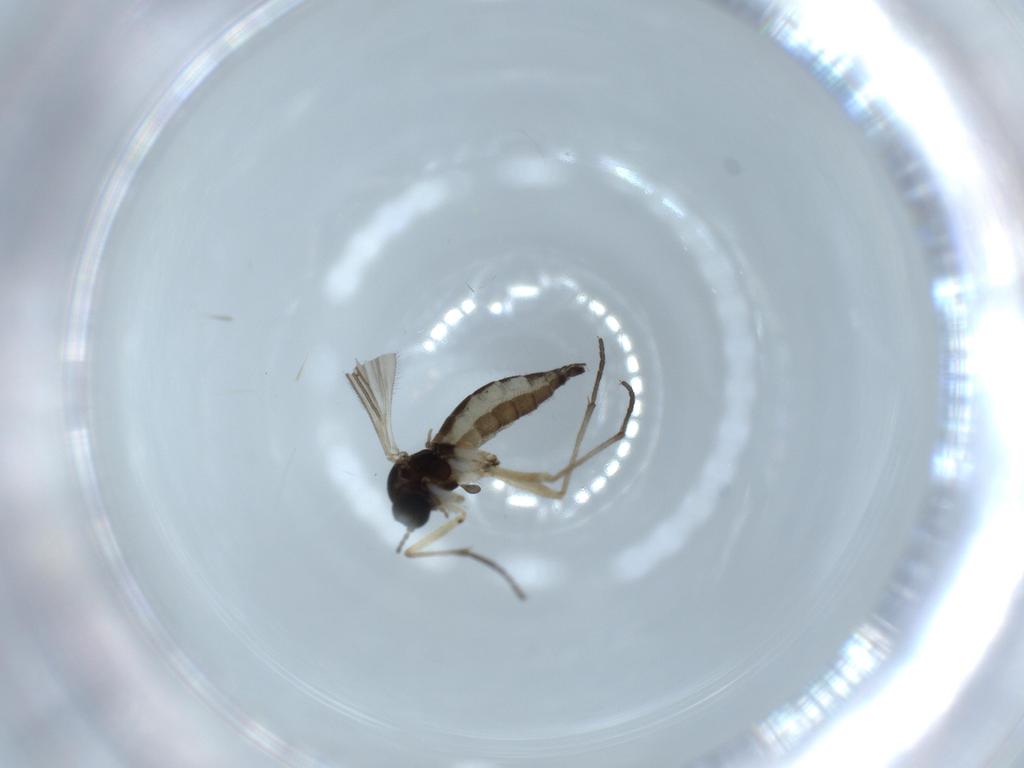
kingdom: Animalia
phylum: Arthropoda
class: Insecta
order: Diptera
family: Sciaridae
